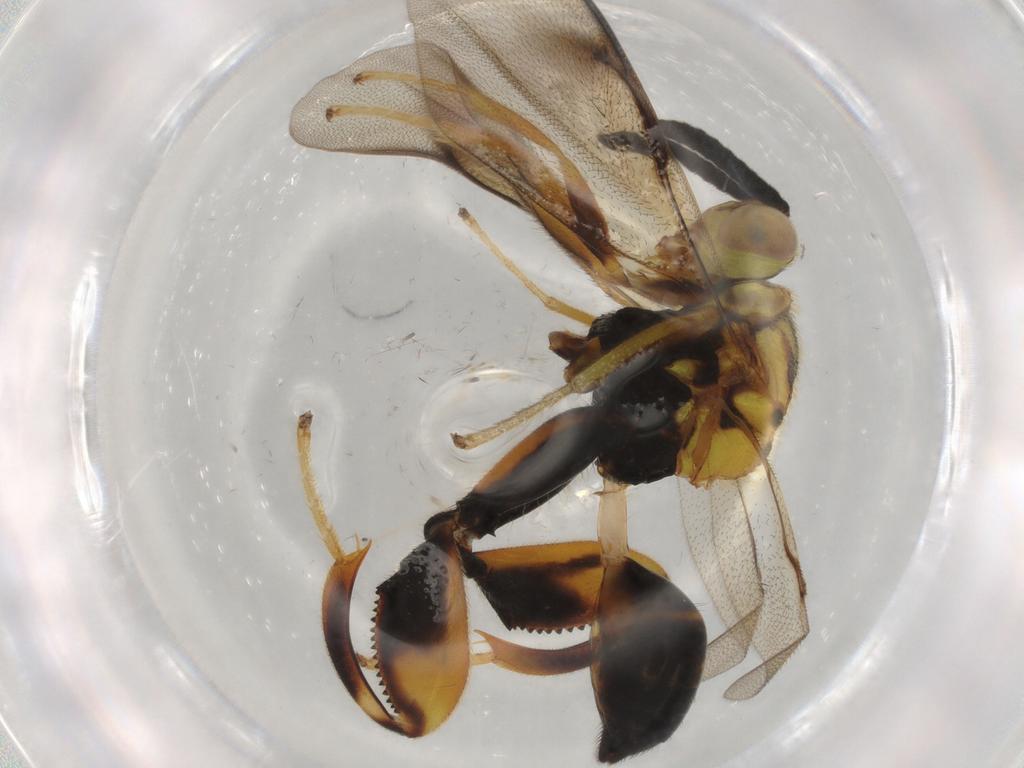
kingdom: Animalia
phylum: Arthropoda
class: Insecta
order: Hymenoptera
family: Chalcididae
